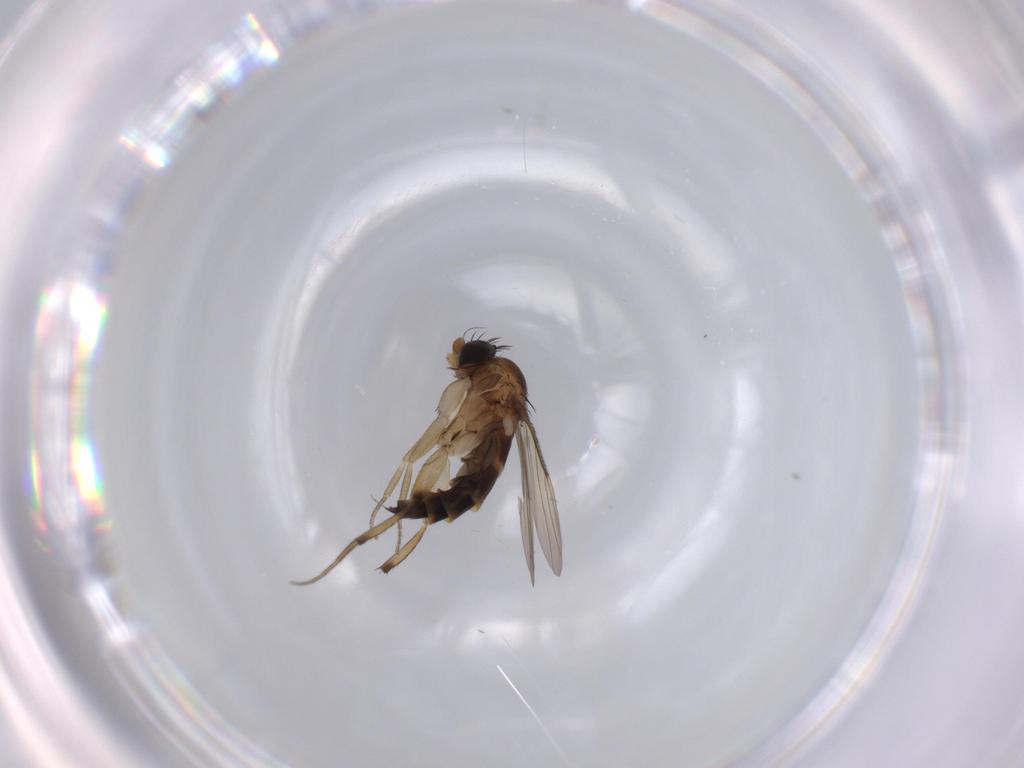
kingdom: Animalia
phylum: Arthropoda
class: Insecta
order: Diptera
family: Phoridae
